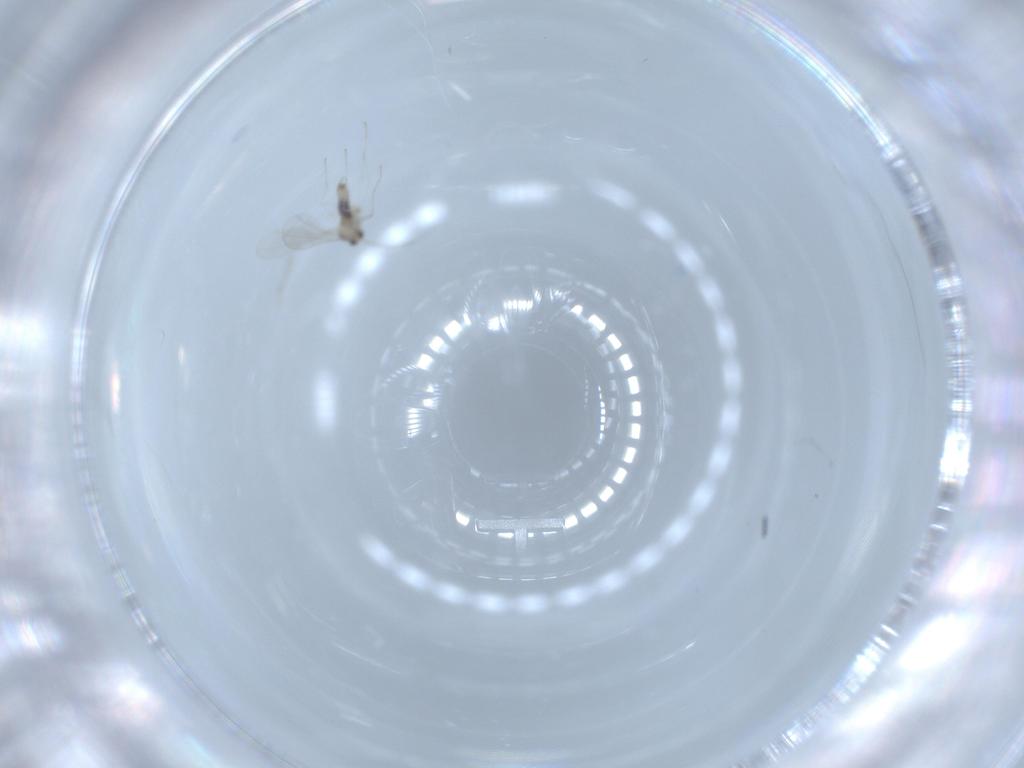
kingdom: Animalia
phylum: Arthropoda
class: Insecta
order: Diptera
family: Cecidomyiidae
